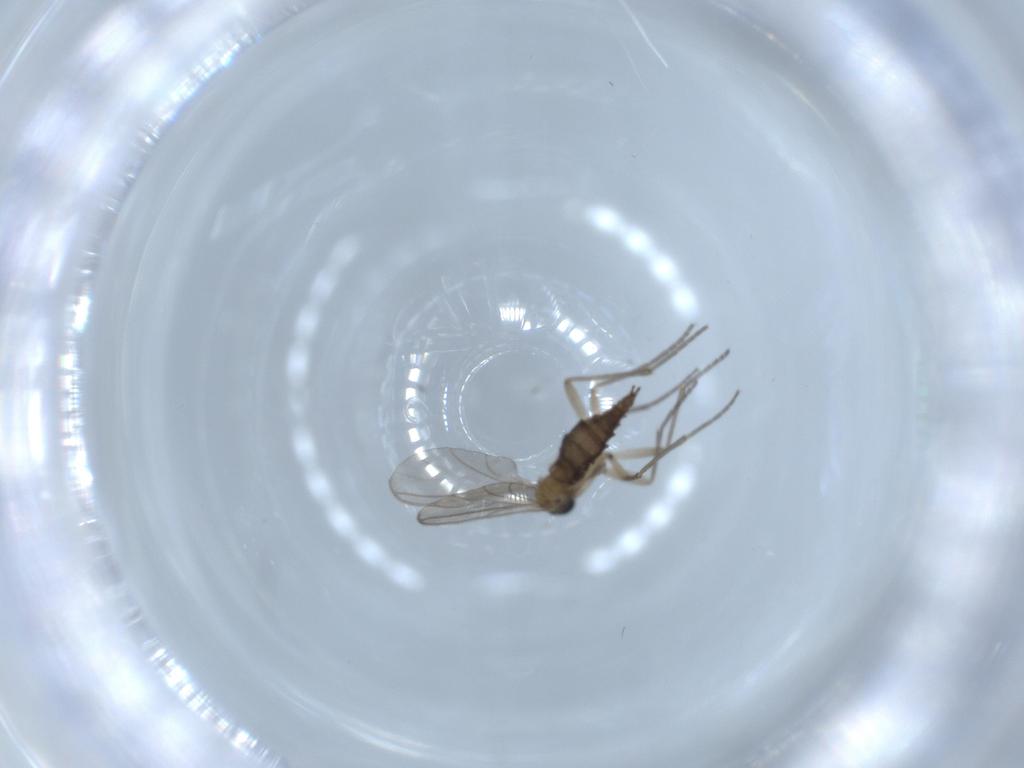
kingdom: Animalia
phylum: Arthropoda
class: Insecta
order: Diptera
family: Sciaridae
